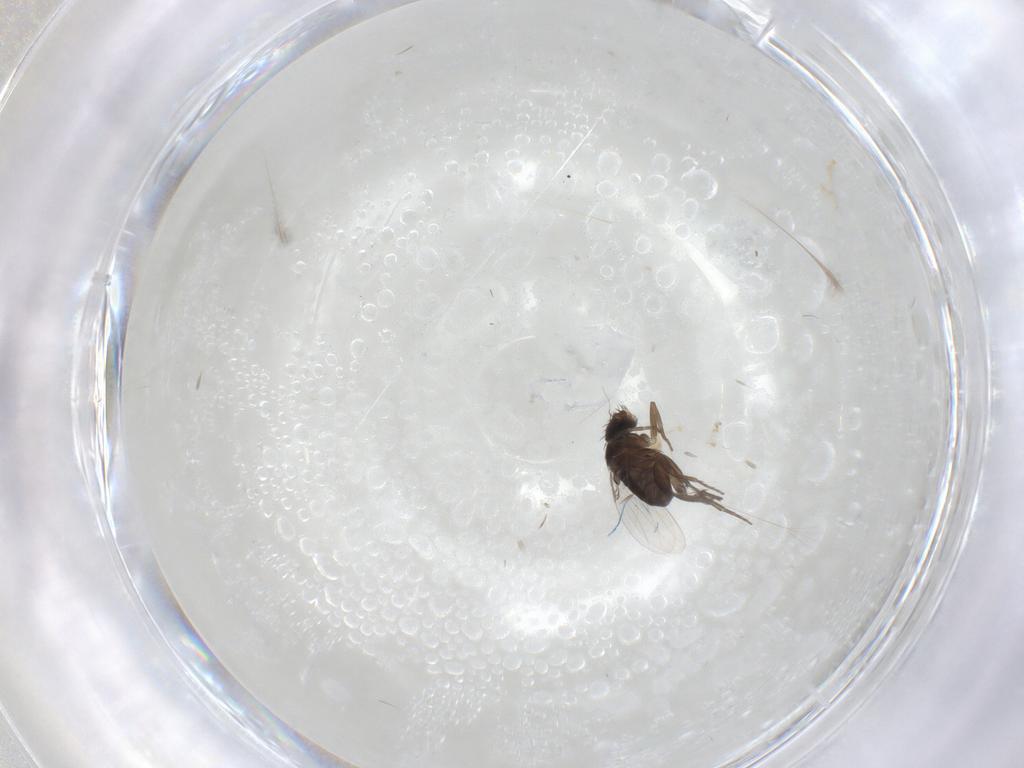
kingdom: Animalia
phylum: Arthropoda
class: Insecta
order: Diptera
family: Phoridae
